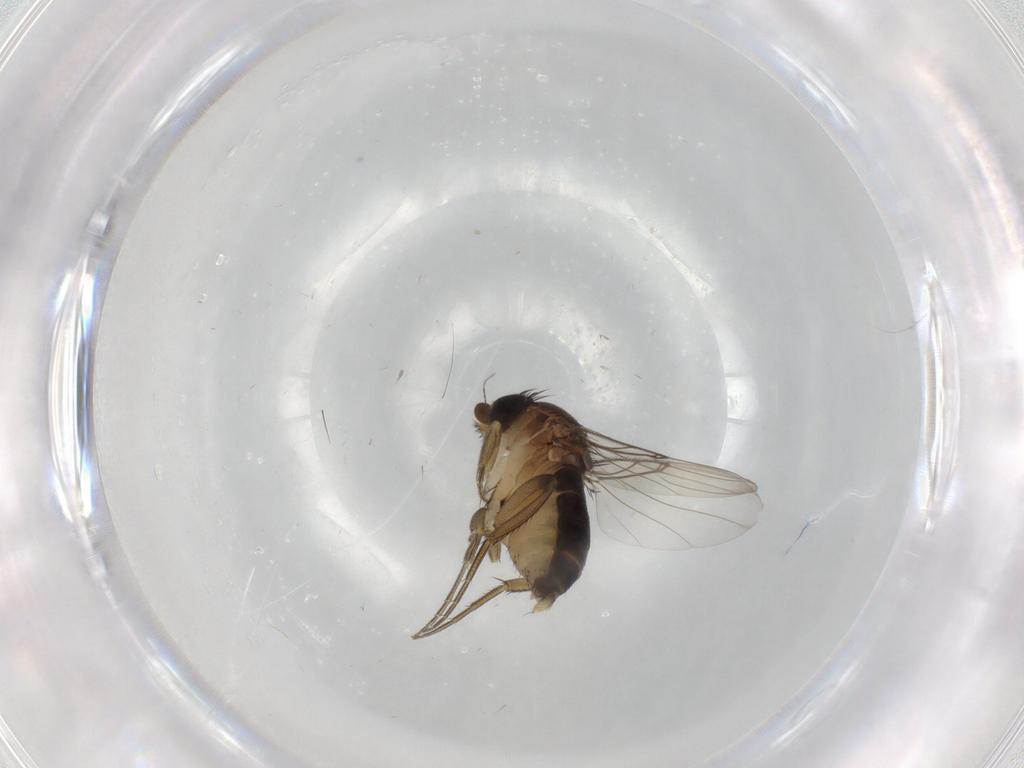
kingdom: Animalia
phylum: Arthropoda
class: Insecta
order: Diptera
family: Phoridae
